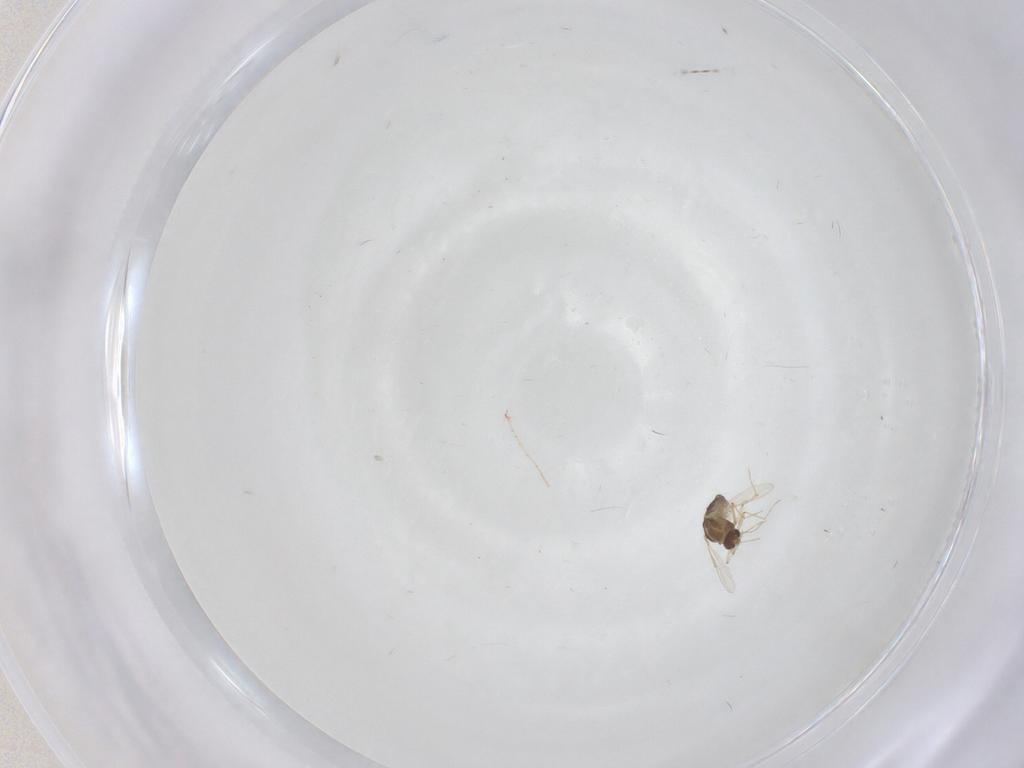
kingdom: Animalia
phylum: Arthropoda
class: Insecta
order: Diptera
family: Chironomidae
